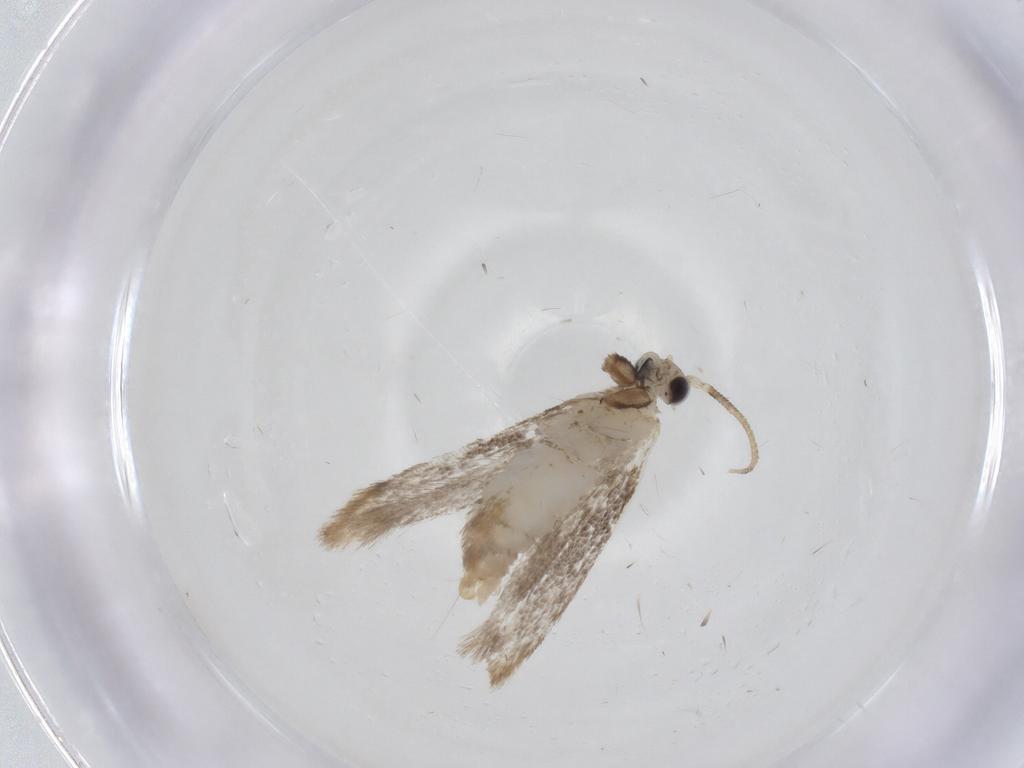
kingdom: Animalia
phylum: Arthropoda
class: Insecta
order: Lepidoptera
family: Dryadaulidae
